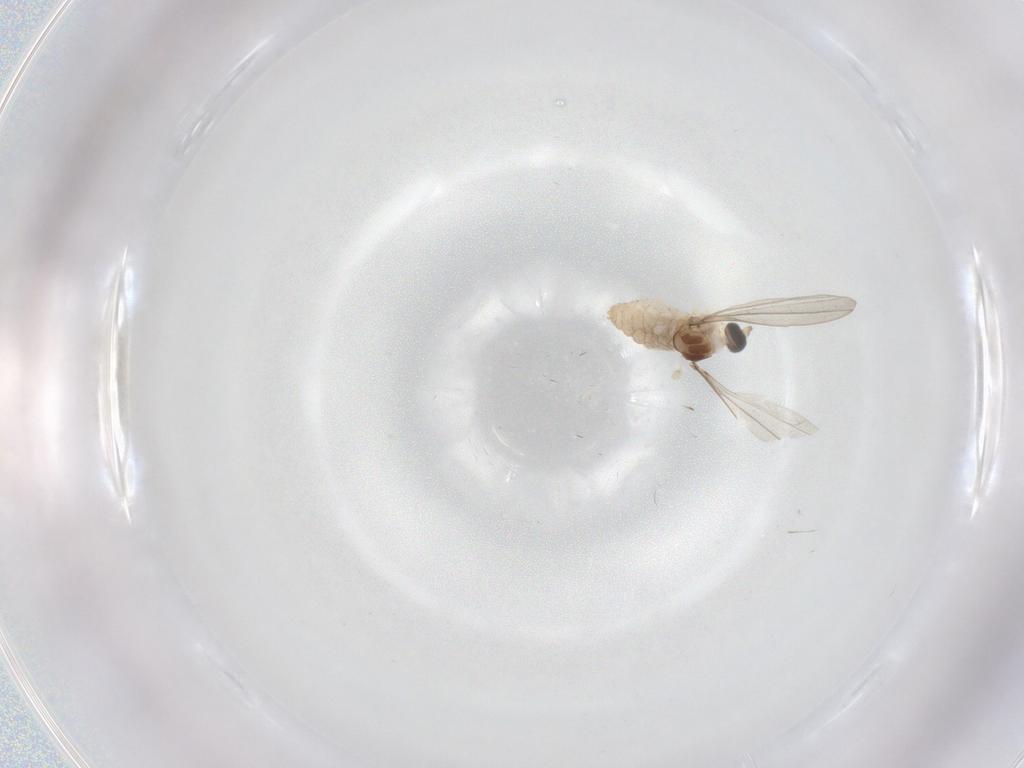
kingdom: Animalia
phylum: Arthropoda
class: Insecta
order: Diptera
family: Cecidomyiidae
